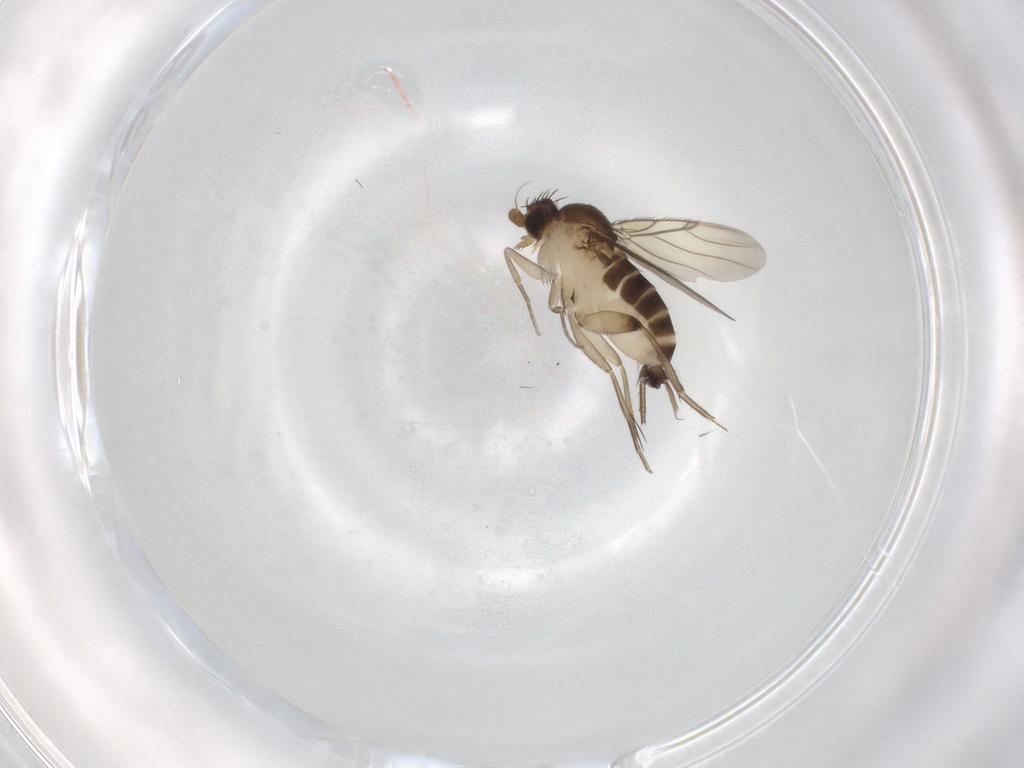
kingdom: Animalia
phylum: Arthropoda
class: Insecta
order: Diptera
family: Phoridae
